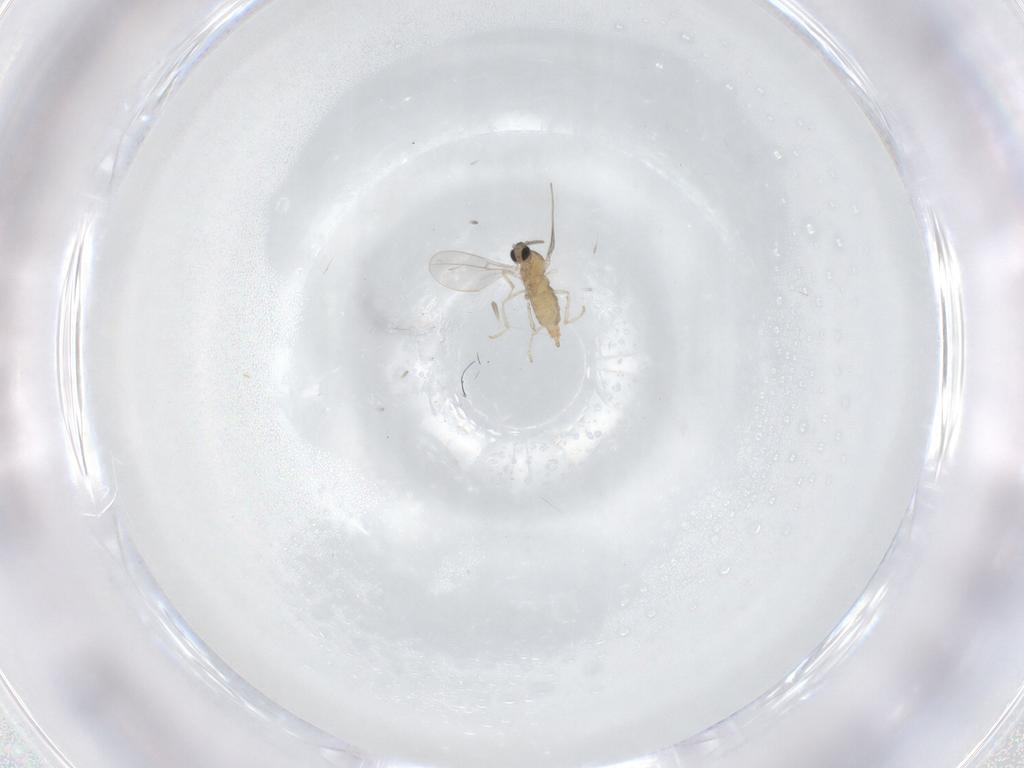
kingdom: Animalia
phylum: Arthropoda
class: Insecta
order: Diptera
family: Cecidomyiidae
